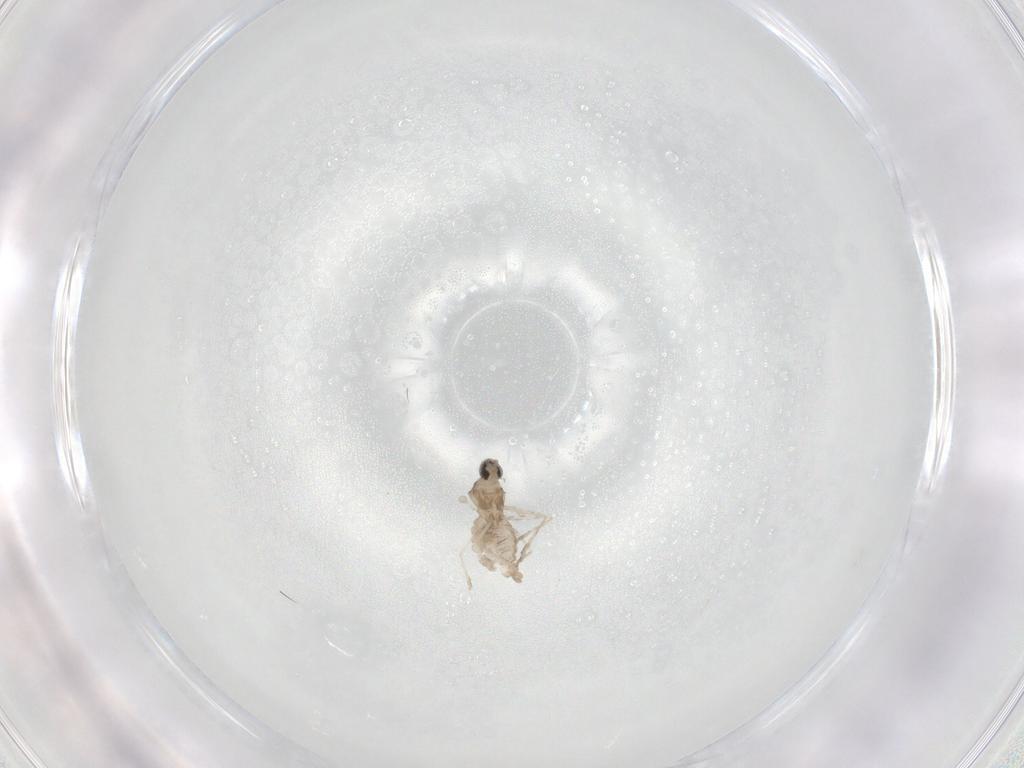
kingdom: Animalia
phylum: Arthropoda
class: Insecta
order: Diptera
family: Cecidomyiidae
